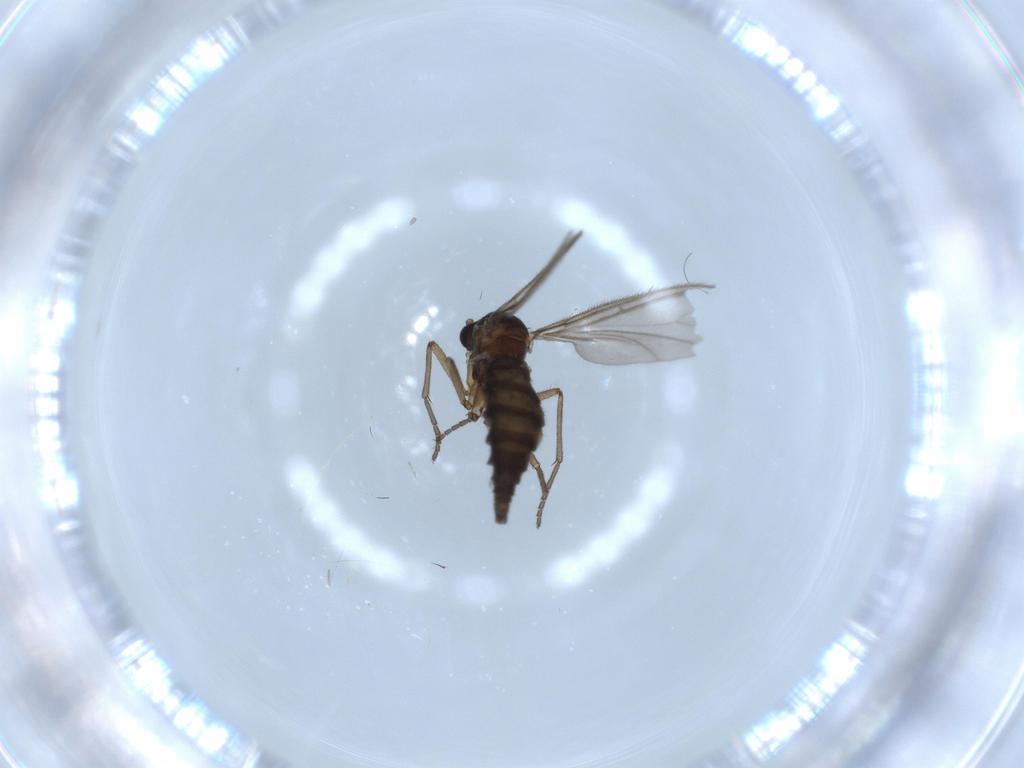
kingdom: Animalia
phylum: Arthropoda
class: Insecta
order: Diptera
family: Sciaridae
